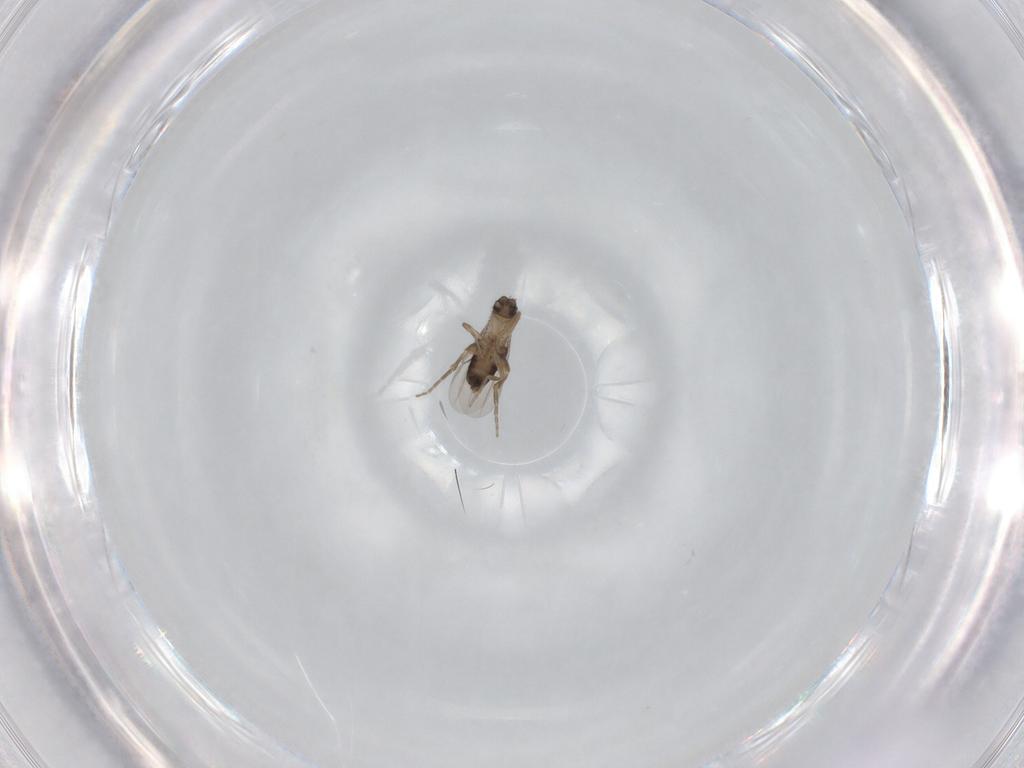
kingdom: Animalia
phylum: Arthropoda
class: Insecta
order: Diptera
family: Phoridae
